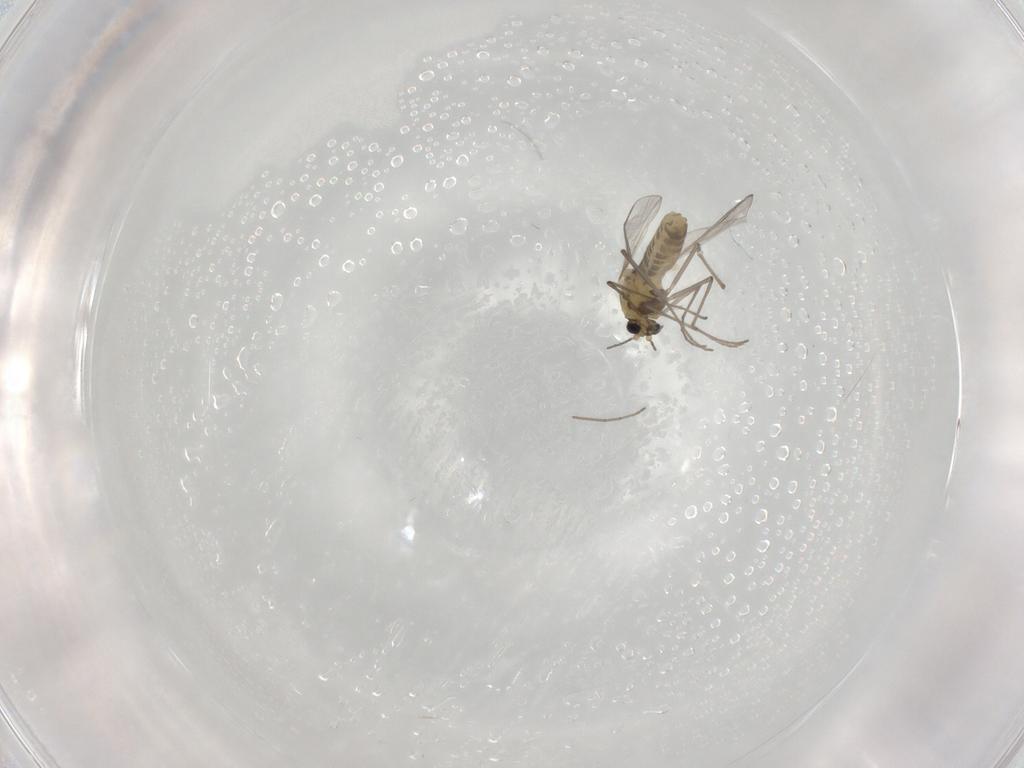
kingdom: Animalia
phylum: Arthropoda
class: Insecta
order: Diptera
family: Chironomidae
